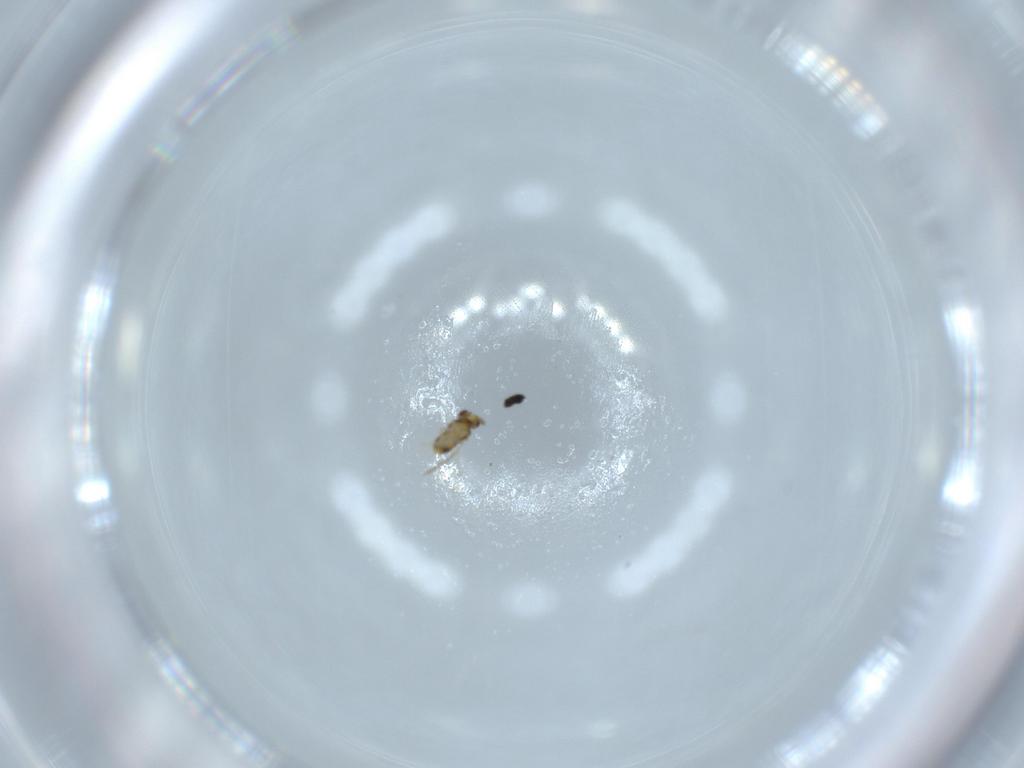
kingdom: Animalia
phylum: Arthropoda
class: Insecta
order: Hymenoptera
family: Aphelinidae
